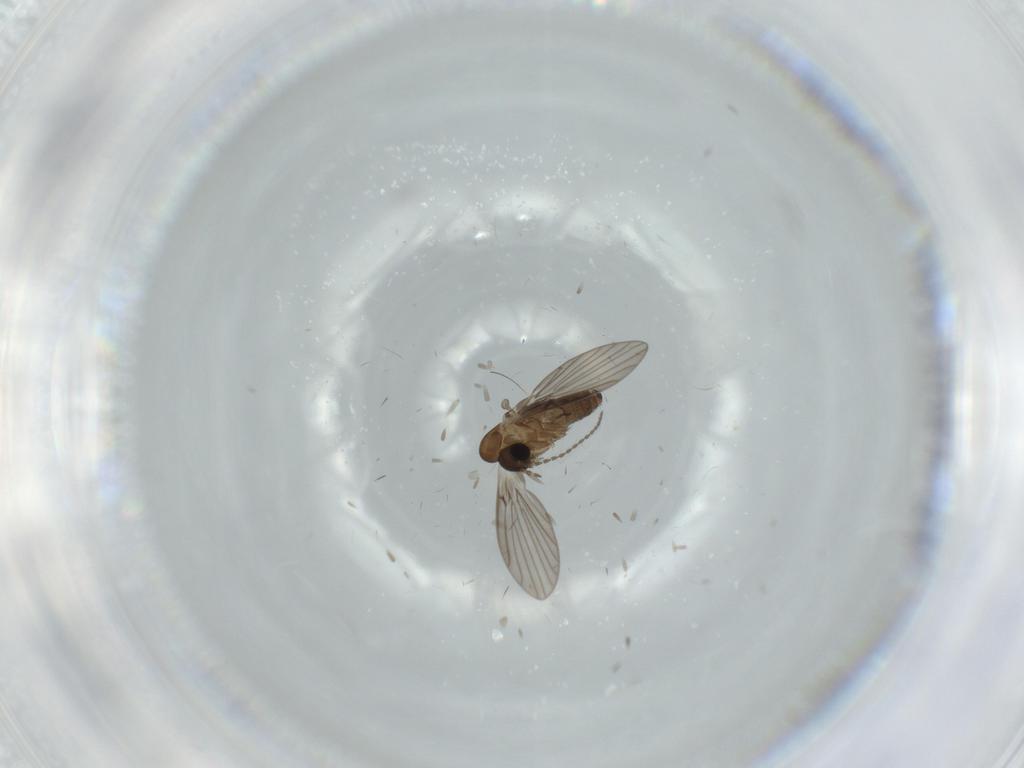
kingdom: Animalia
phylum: Arthropoda
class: Insecta
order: Diptera
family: Psychodidae
